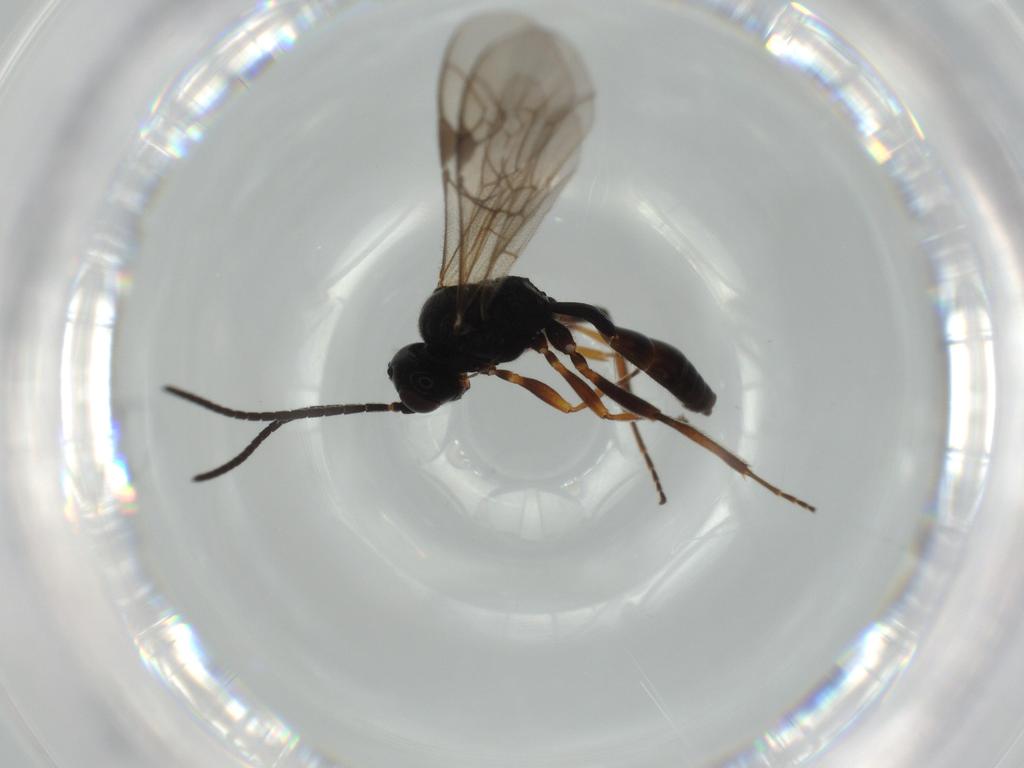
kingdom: Animalia
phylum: Arthropoda
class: Insecta
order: Hymenoptera
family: Ichneumonidae
